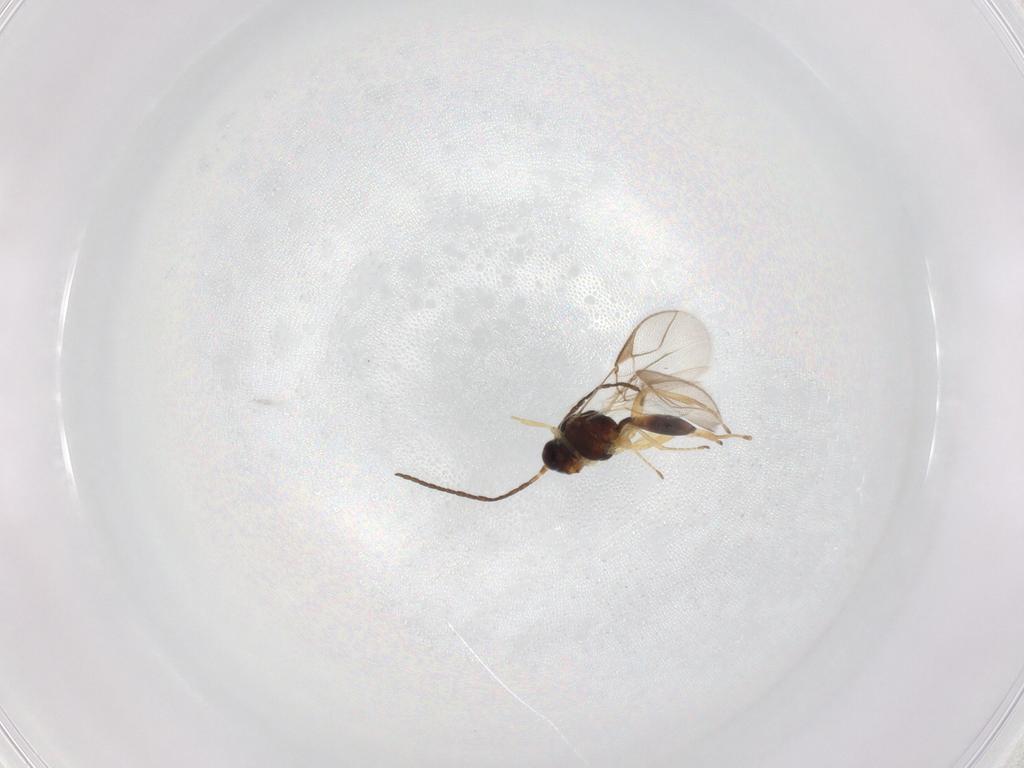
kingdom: Animalia
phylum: Arthropoda
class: Insecta
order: Hymenoptera
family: Braconidae
